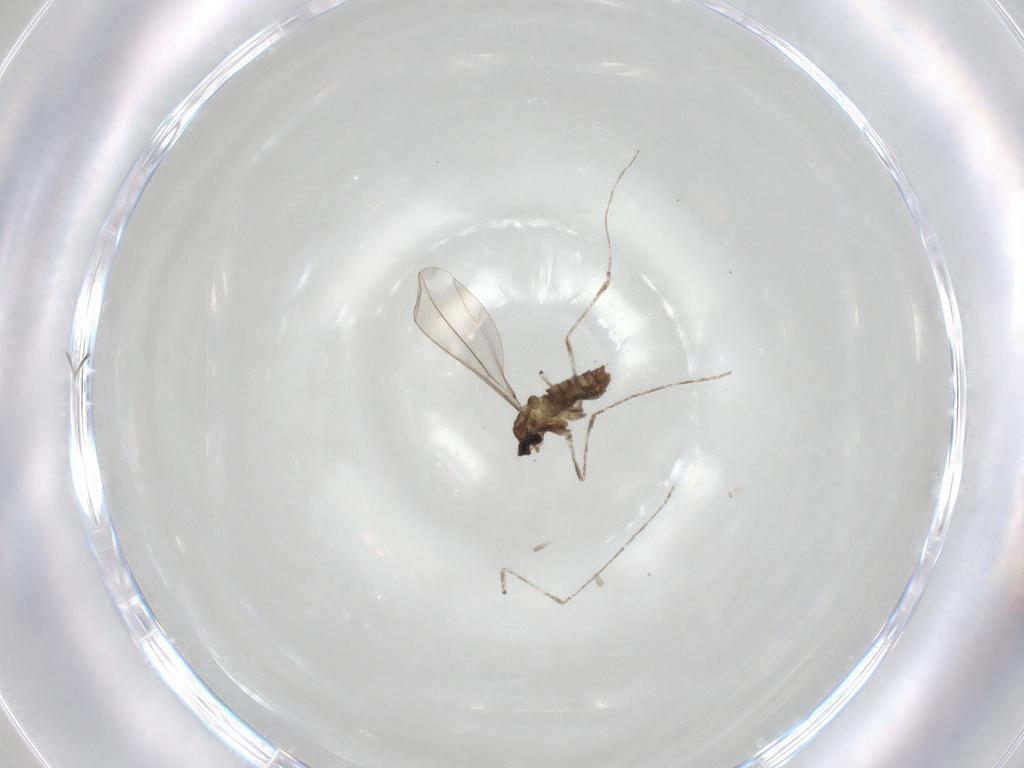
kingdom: Animalia
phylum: Arthropoda
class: Insecta
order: Diptera
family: Cecidomyiidae
